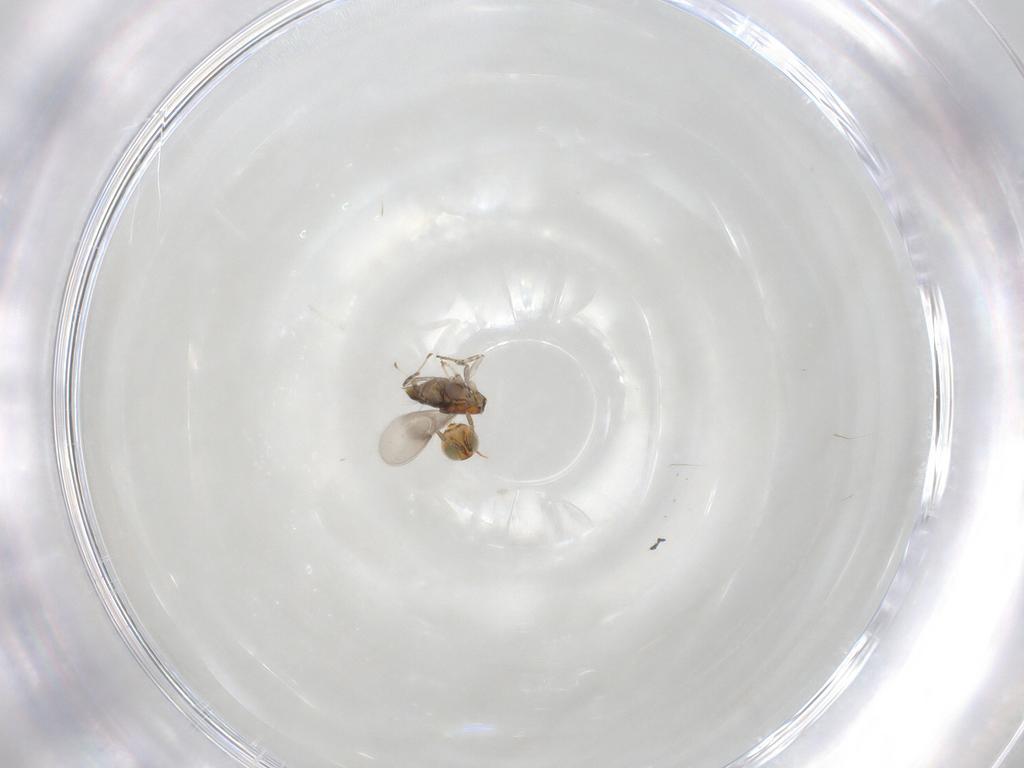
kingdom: Animalia
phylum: Arthropoda
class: Insecta
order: Hymenoptera
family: Encyrtidae
